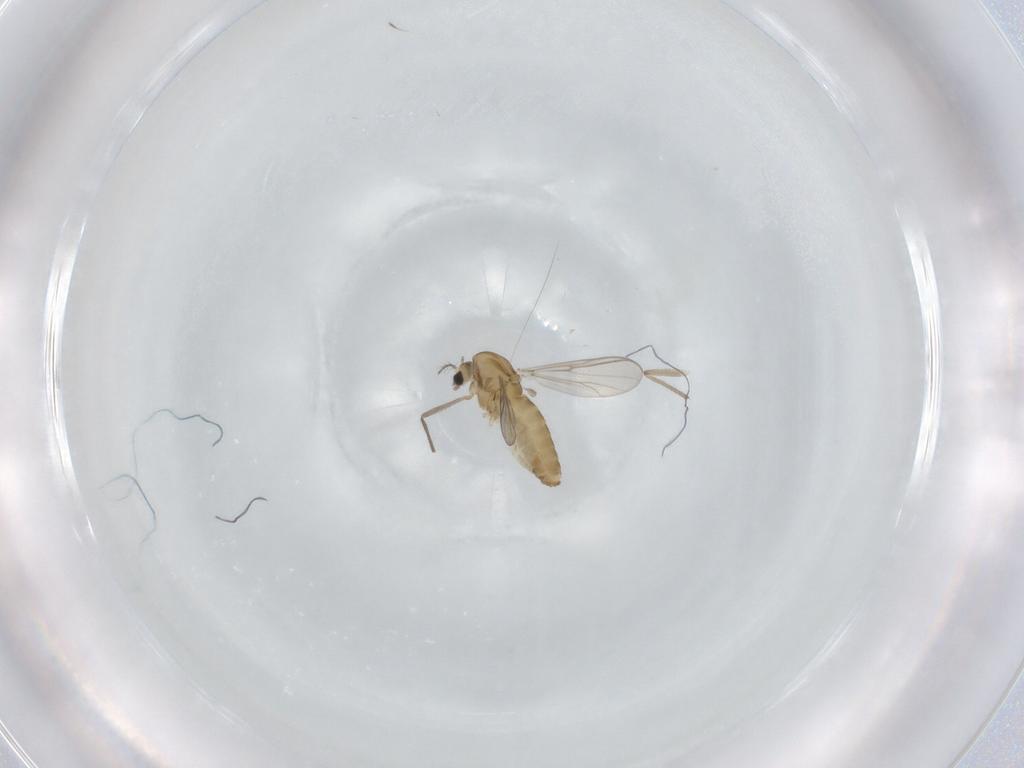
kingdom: Animalia
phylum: Arthropoda
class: Insecta
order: Diptera
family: Chironomidae
